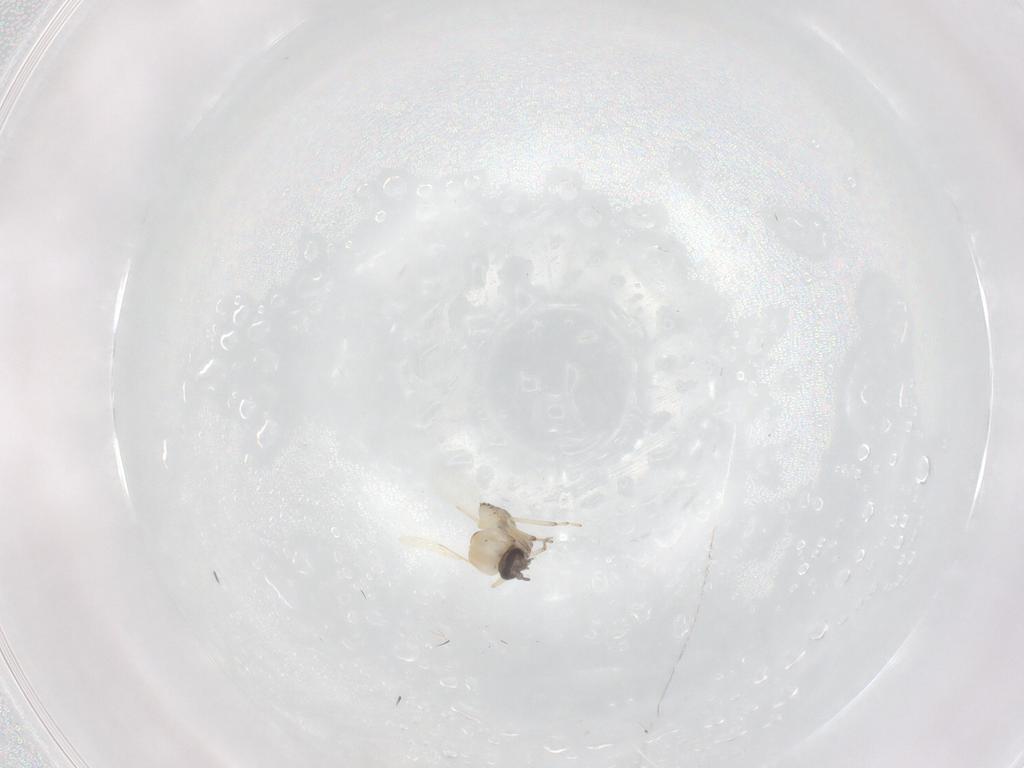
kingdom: Animalia
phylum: Arthropoda
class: Insecta
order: Diptera
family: Ceratopogonidae
